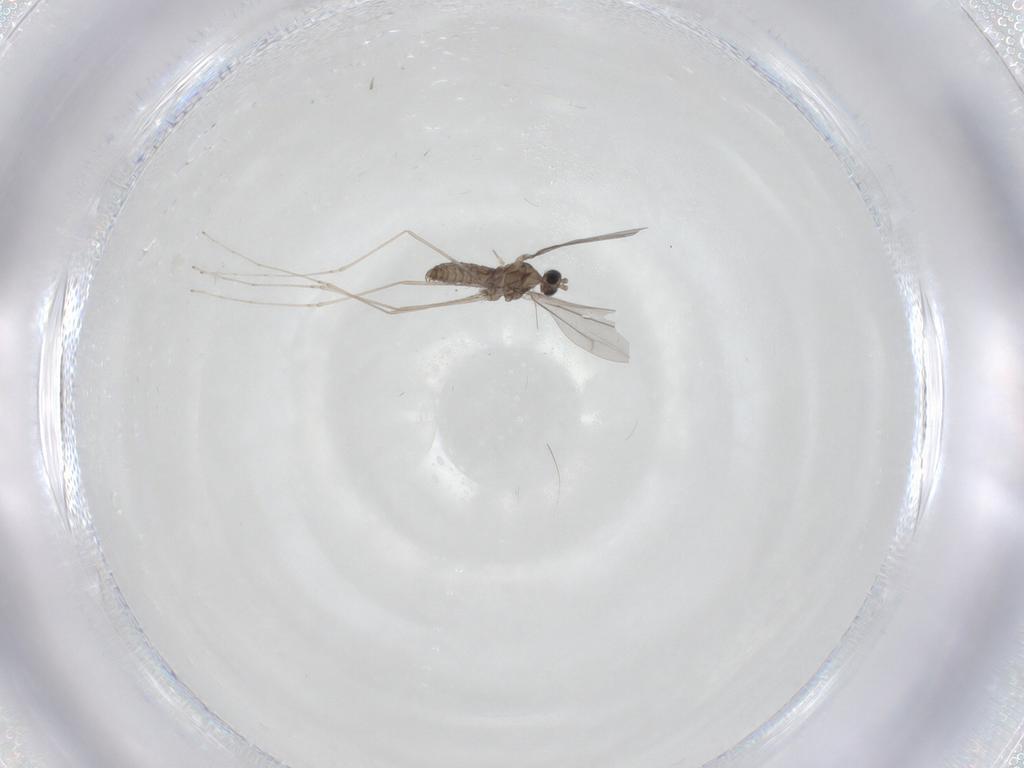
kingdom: Animalia
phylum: Arthropoda
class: Insecta
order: Diptera
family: Cecidomyiidae
